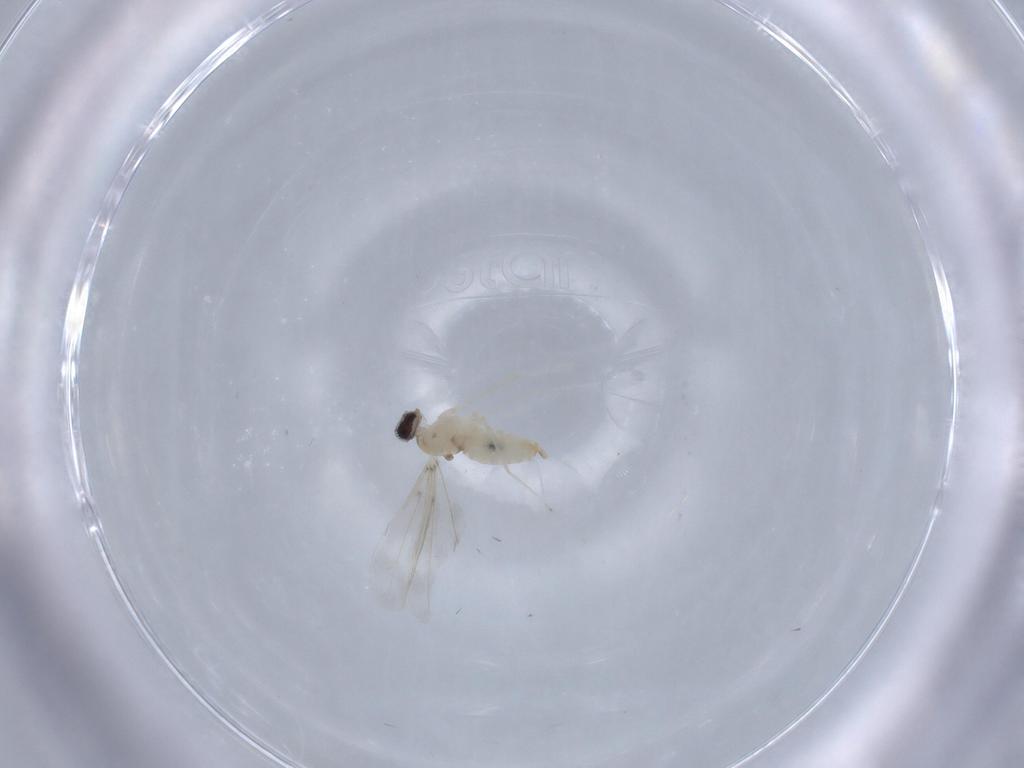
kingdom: Animalia
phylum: Arthropoda
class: Insecta
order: Diptera
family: Cecidomyiidae
